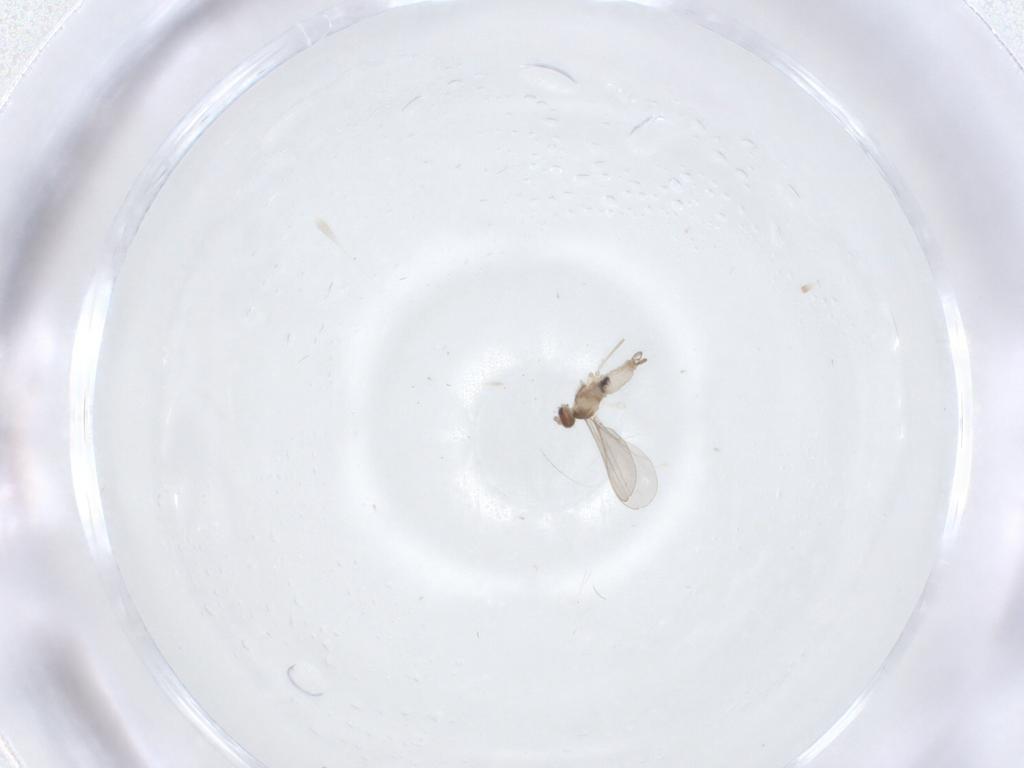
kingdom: Animalia
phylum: Arthropoda
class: Insecta
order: Diptera
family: Cecidomyiidae
